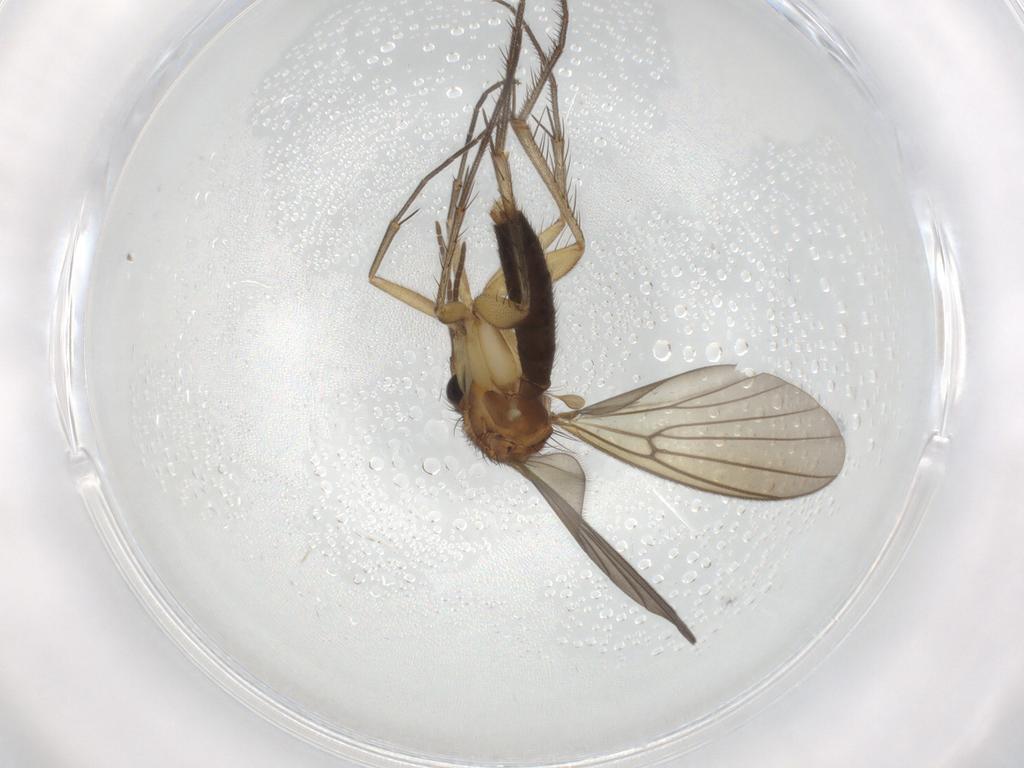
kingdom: Animalia
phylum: Arthropoda
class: Insecta
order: Diptera
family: Mycetophilidae
